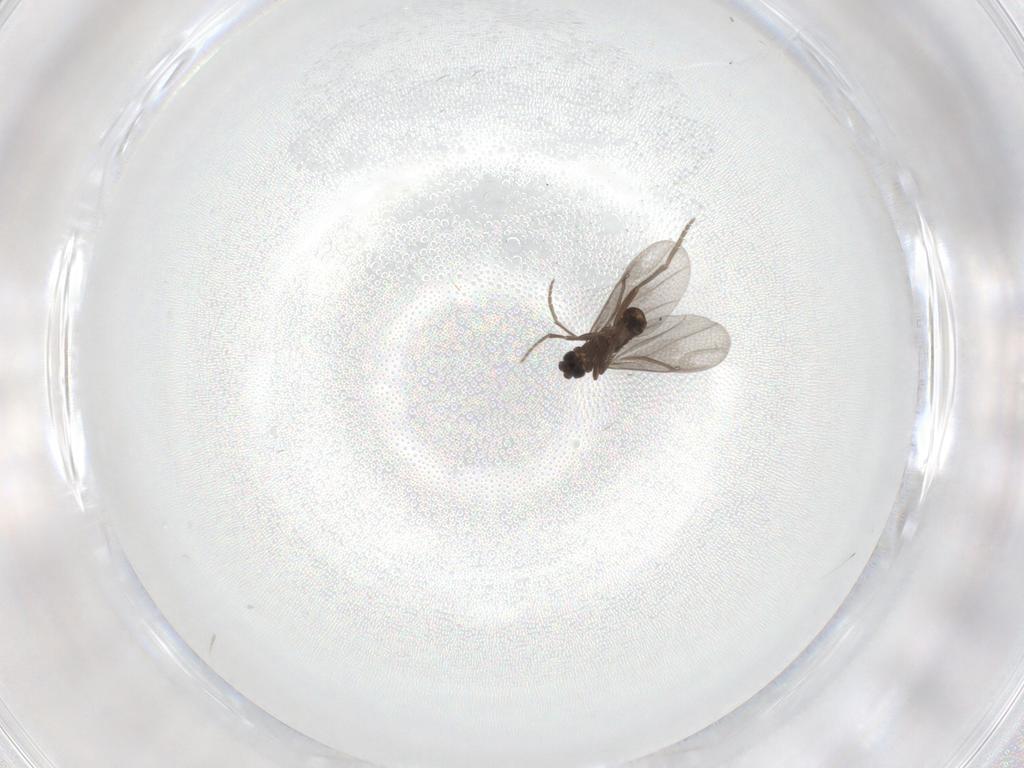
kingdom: Animalia
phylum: Arthropoda
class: Insecta
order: Diptera
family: Phoridae
